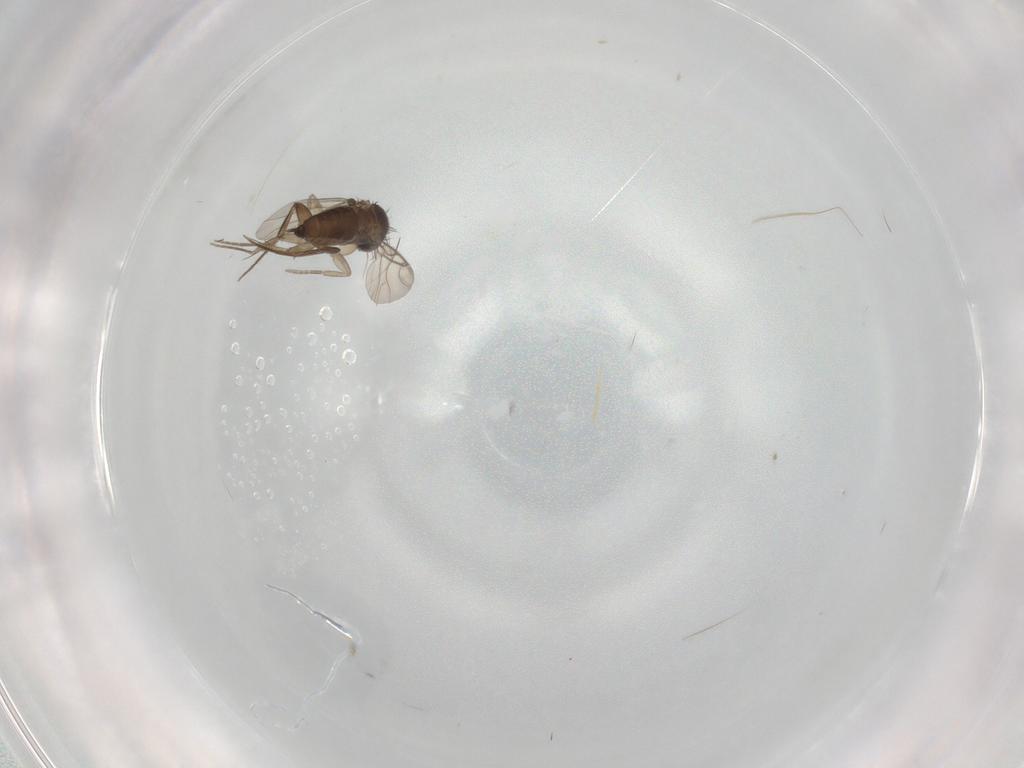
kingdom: Animalia
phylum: Arthropoda
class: Insecta
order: Diptera
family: Phoridae
